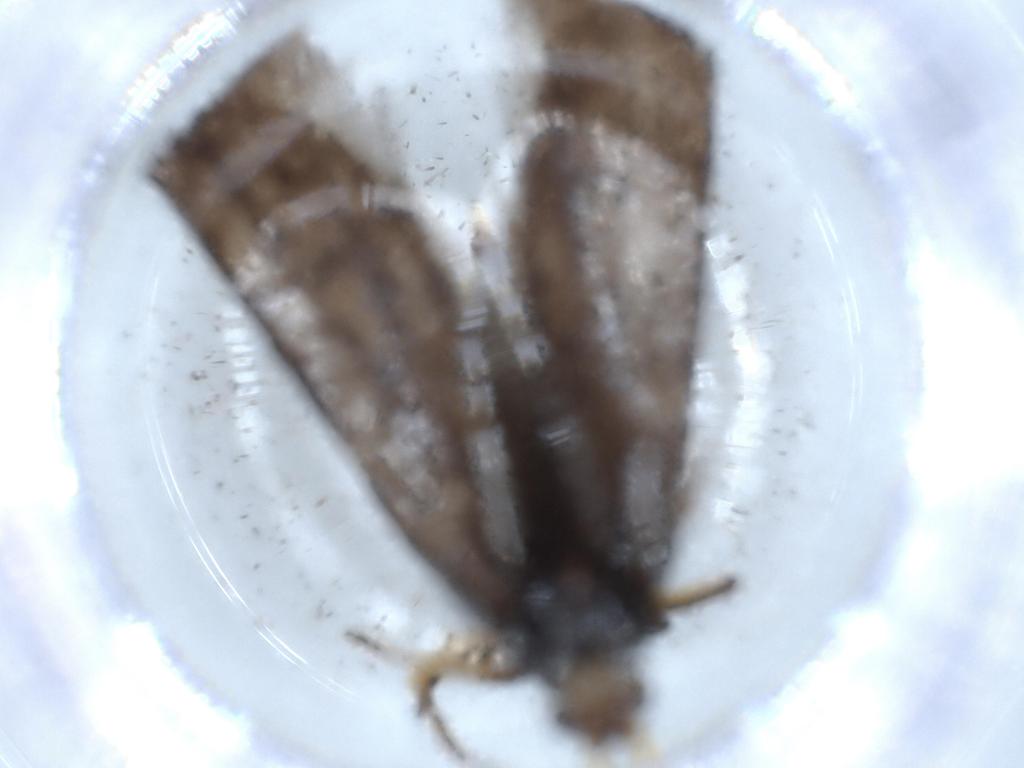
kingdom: Animalia
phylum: Arthropoda
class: Insecta
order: Lepidoptera
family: Lecithoceridae
